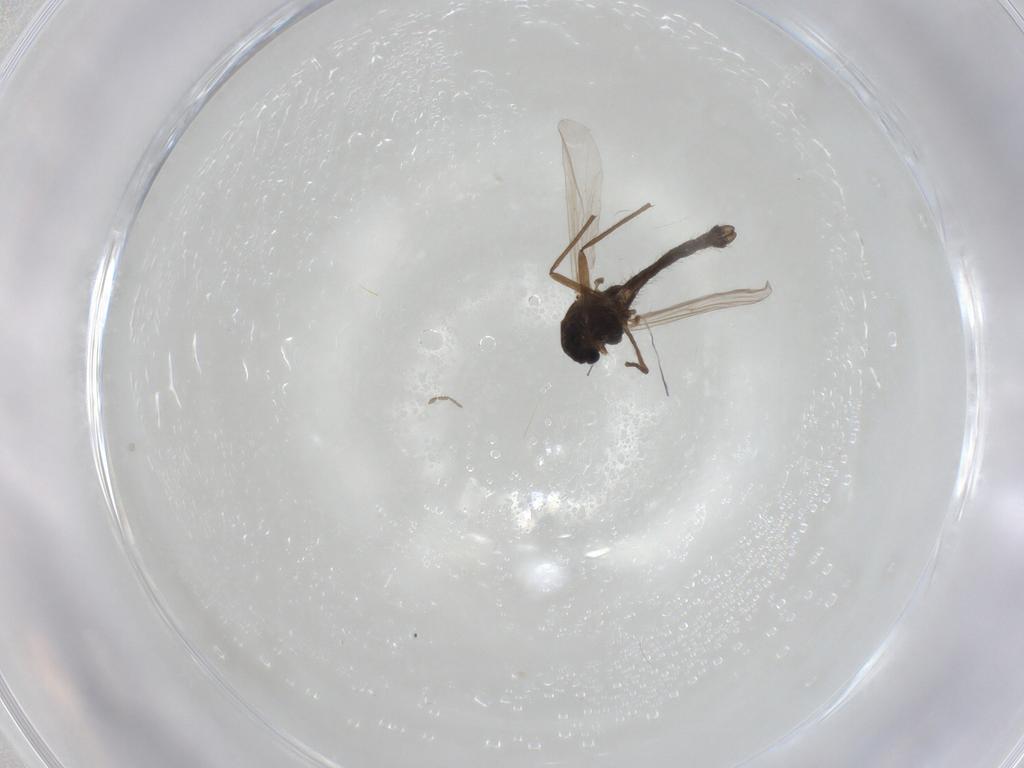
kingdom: Animalia
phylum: Arthropoda
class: Insecta
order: Diptera
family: Chironomidae
